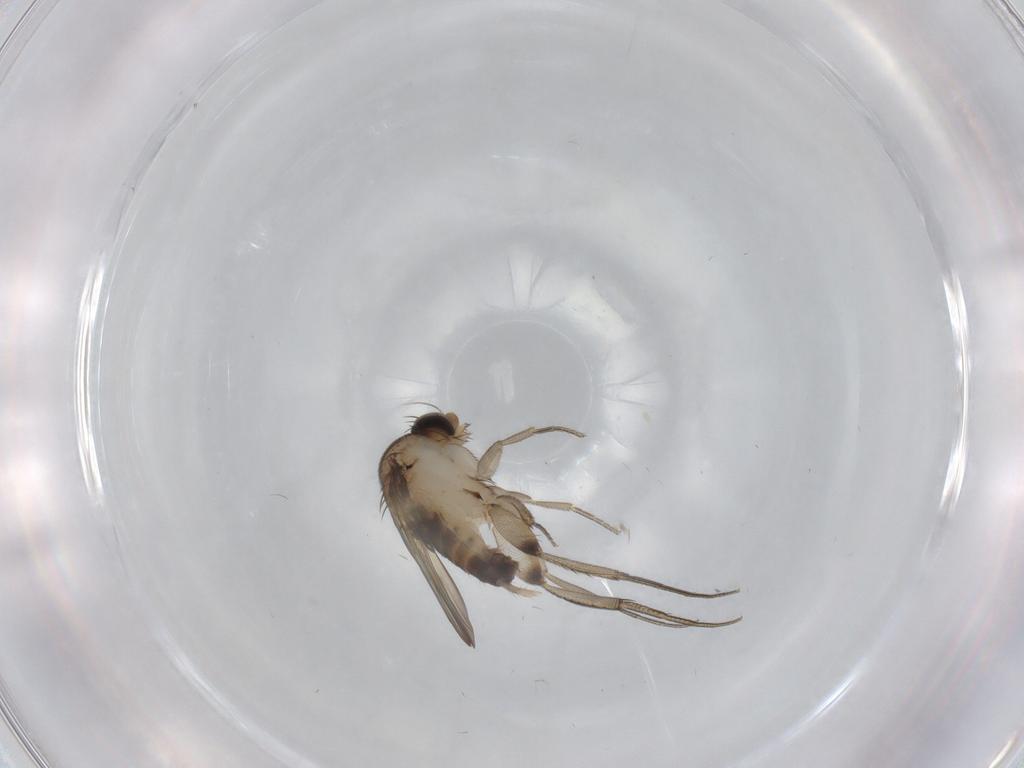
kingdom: Animalia
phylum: Arthropoda
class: Insecta
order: Diptera
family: Phoridae
